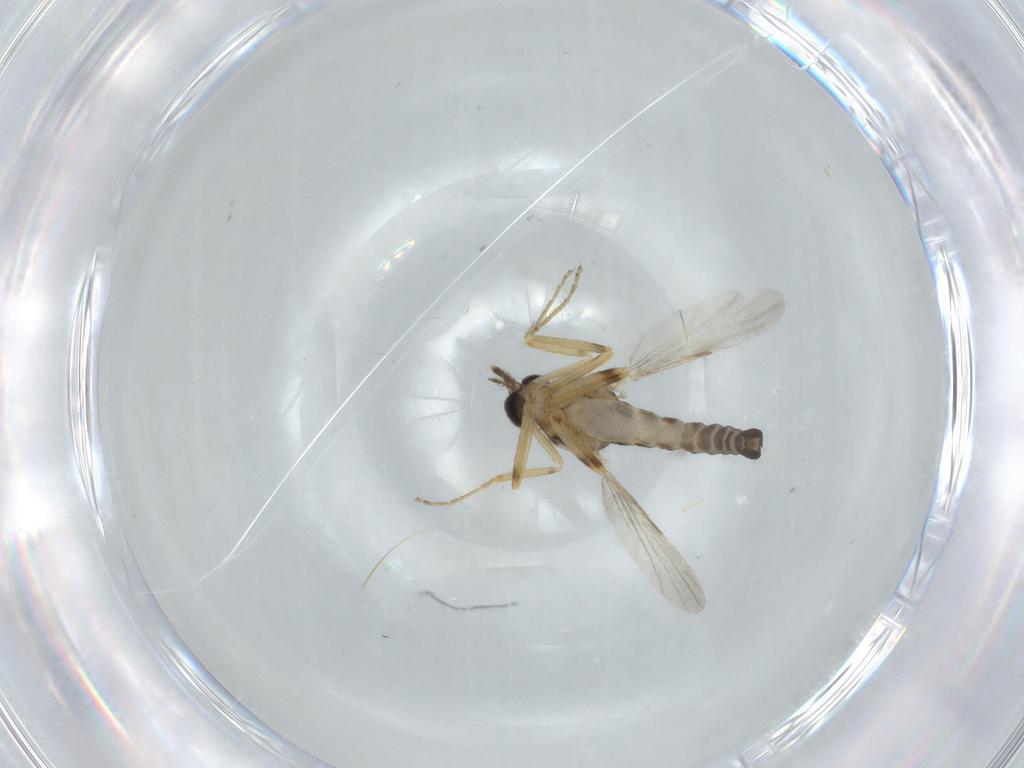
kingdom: Animalia
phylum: Arthropoda
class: Insecta
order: Diptera
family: Ceratopogonidae
